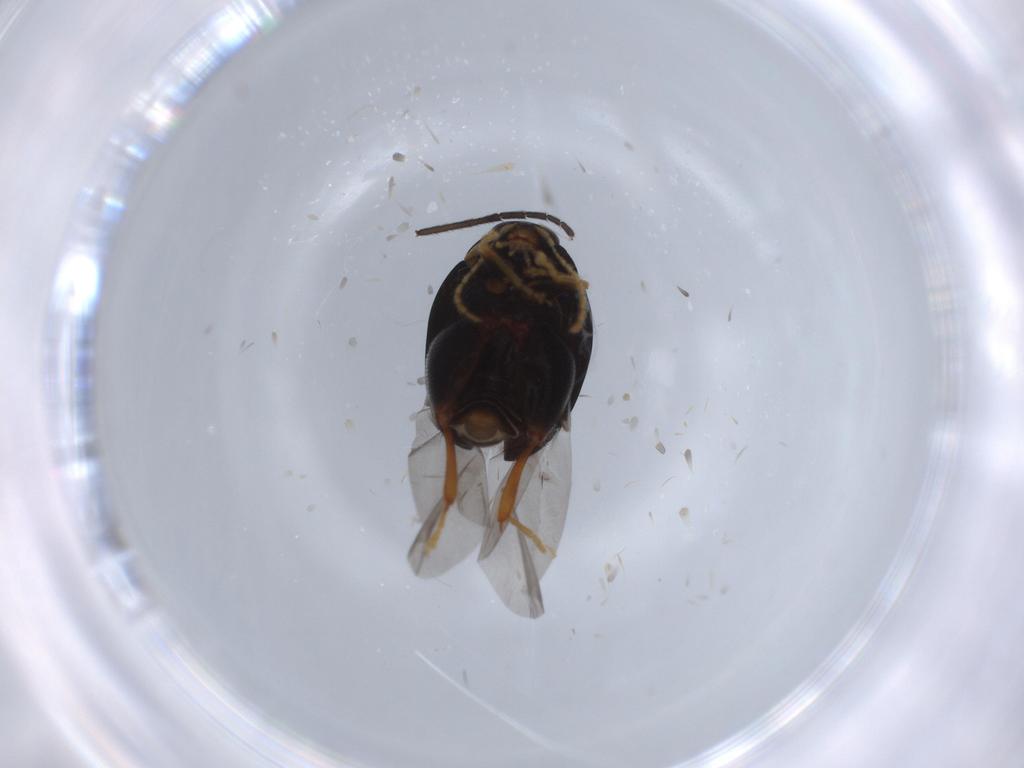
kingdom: Animalia
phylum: Arthropoda
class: Insecta
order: Coleoptera
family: Chrysomelidae
